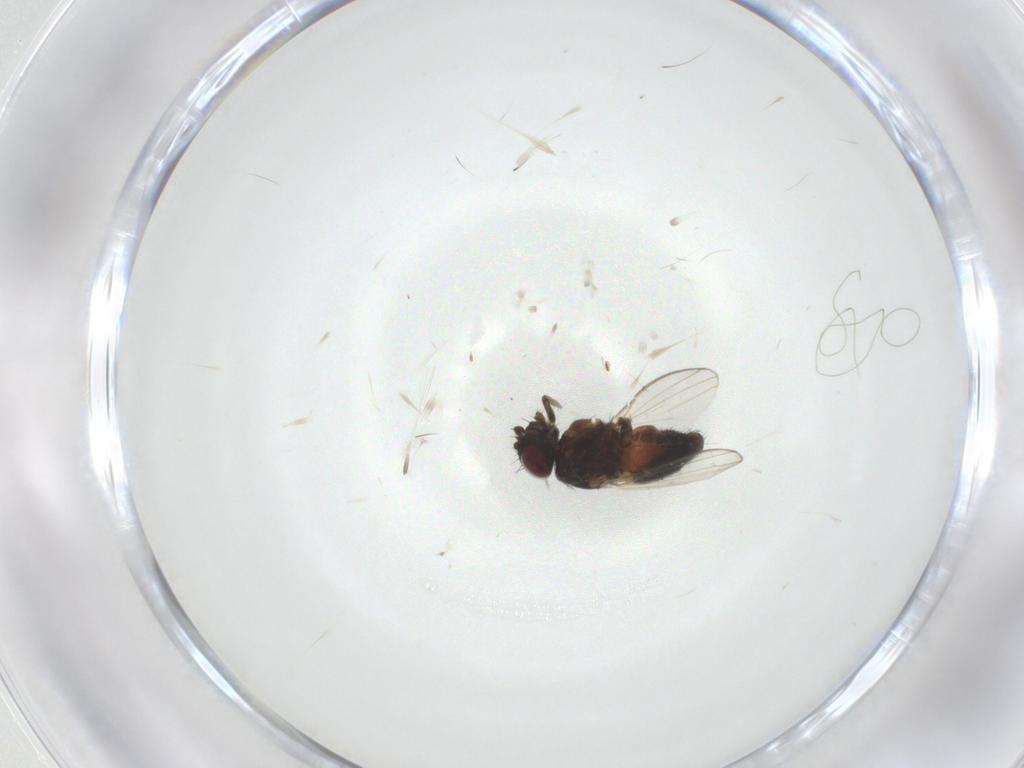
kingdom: Animalia
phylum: Arthropoda
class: Insecta
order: Diptera
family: Milichiidae
